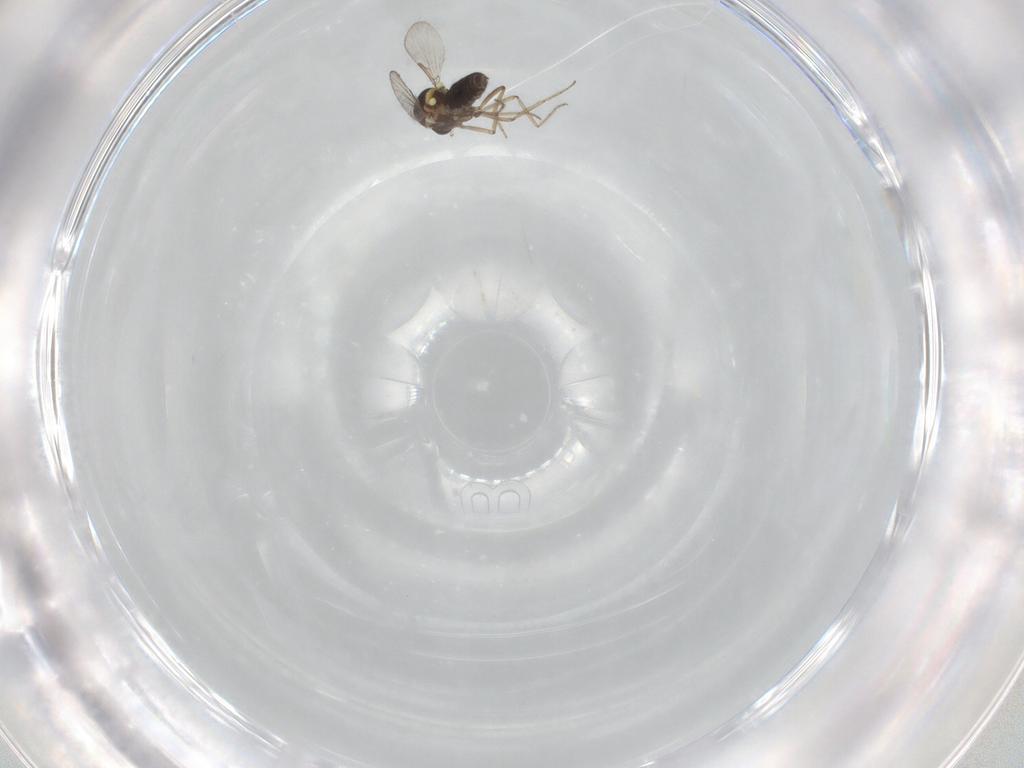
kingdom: Animalia
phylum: Arthropoda
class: Insecta
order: Diptera
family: Ceratopogonidae
